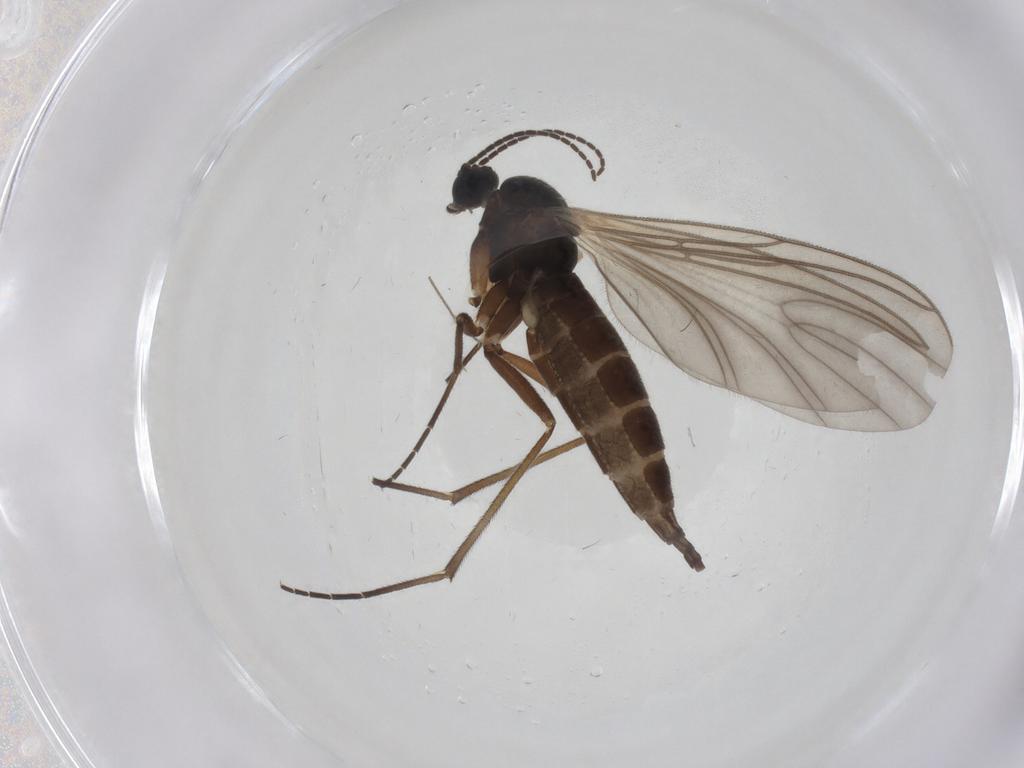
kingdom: Animalia
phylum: Arthropoda
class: Insecta
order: Diptera
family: Sciaridae
